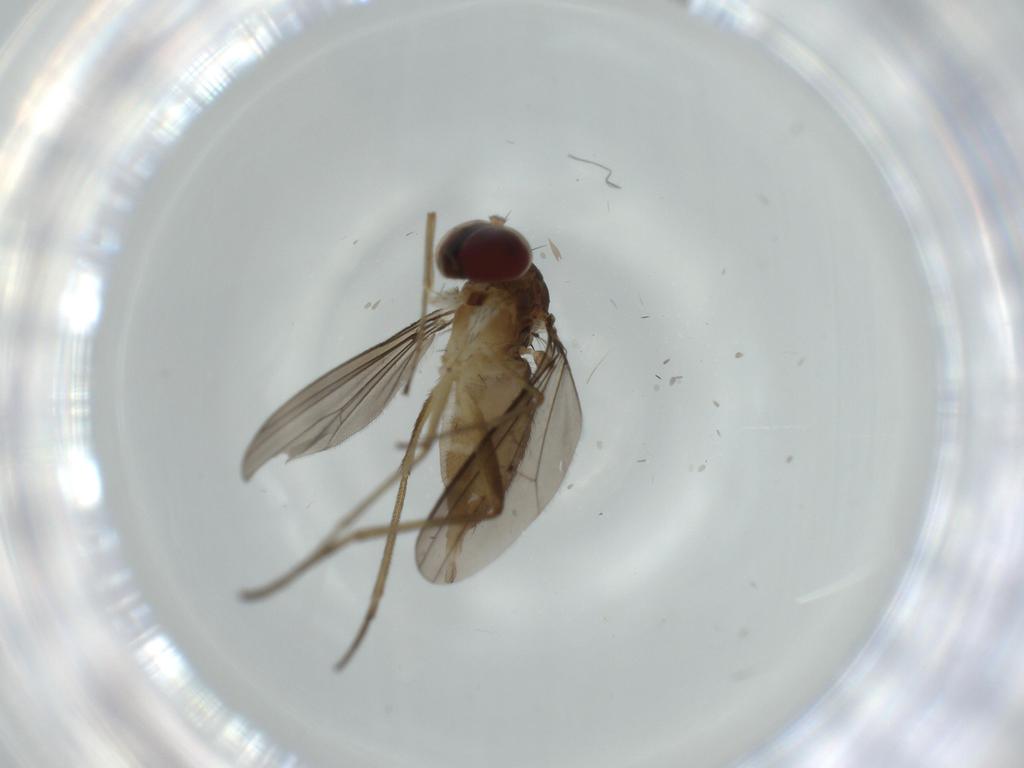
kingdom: Animalia
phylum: Arthropoda
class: Insecta
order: Diptera
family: Dolichopodidae
